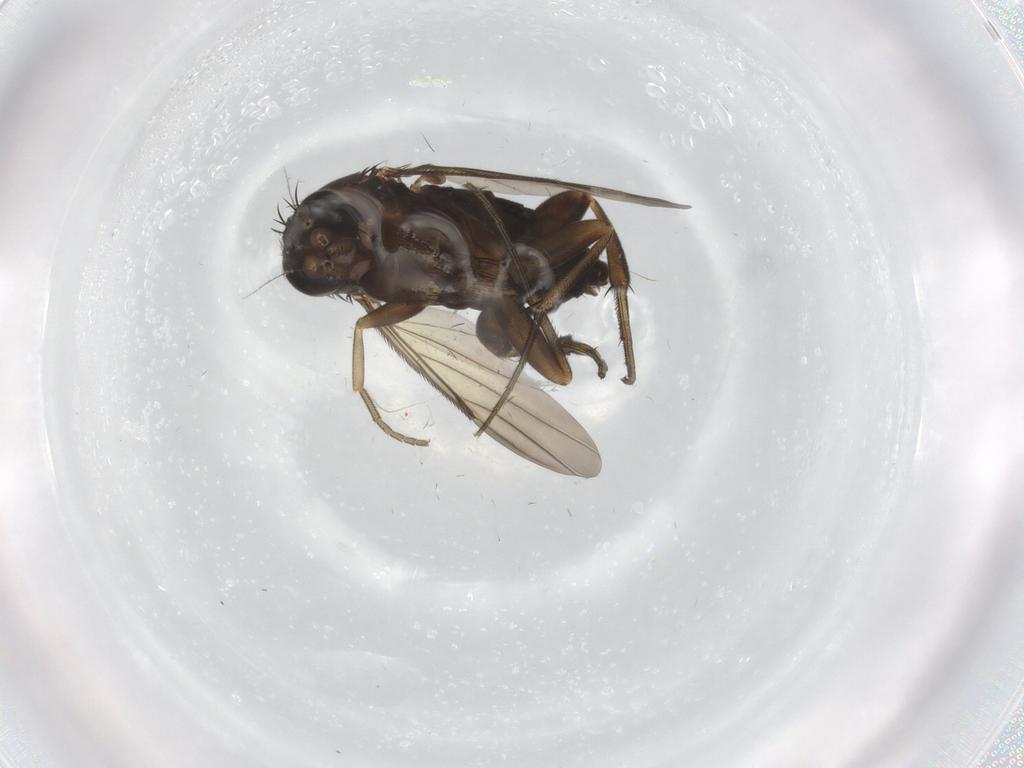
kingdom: Animalia
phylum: Arthropoda
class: Insecta
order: Diptera
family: Phoridae
